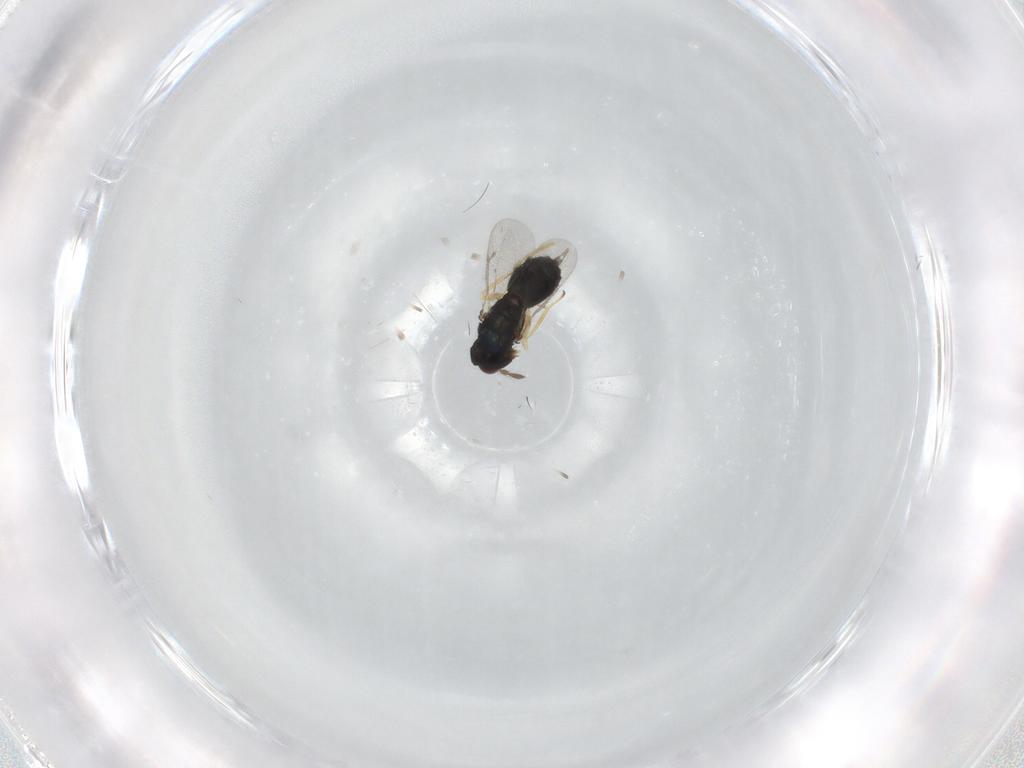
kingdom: Animalia
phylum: Arthropoda
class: Insecta
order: Hymenoptera
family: Eulophidae
